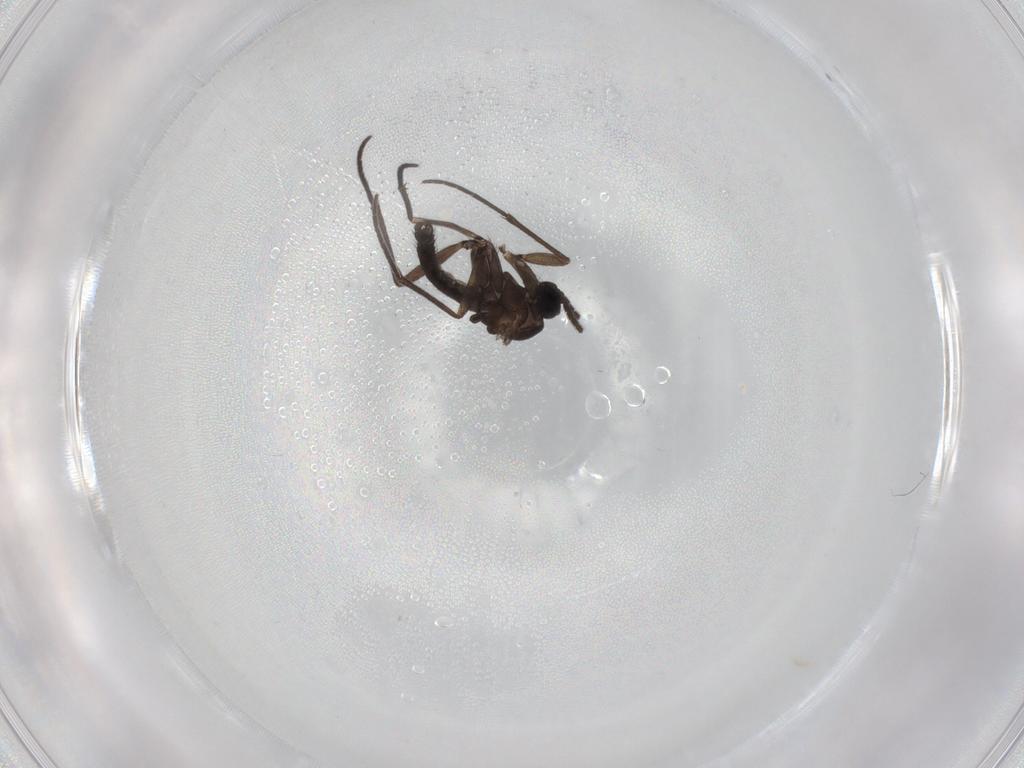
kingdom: Animalia
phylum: Arthropoda
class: Insecta
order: Diptera
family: Sciaridae
